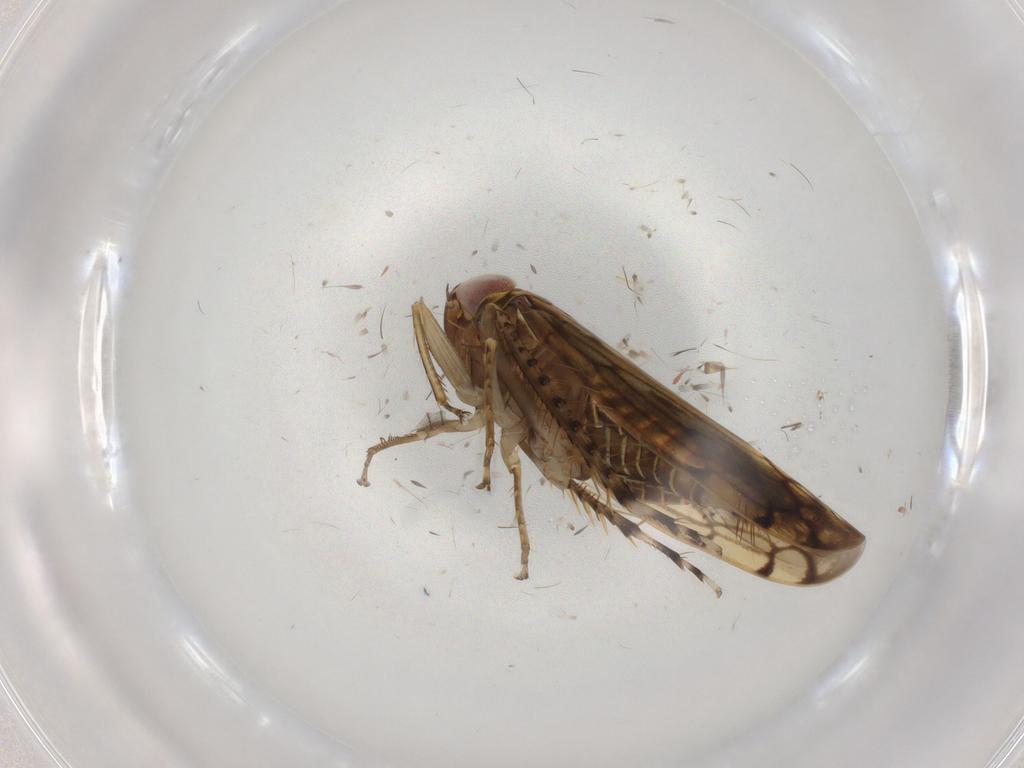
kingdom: Animalia
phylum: Arthropoda
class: Insecta
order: Hemiptera
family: Cicadellidae
